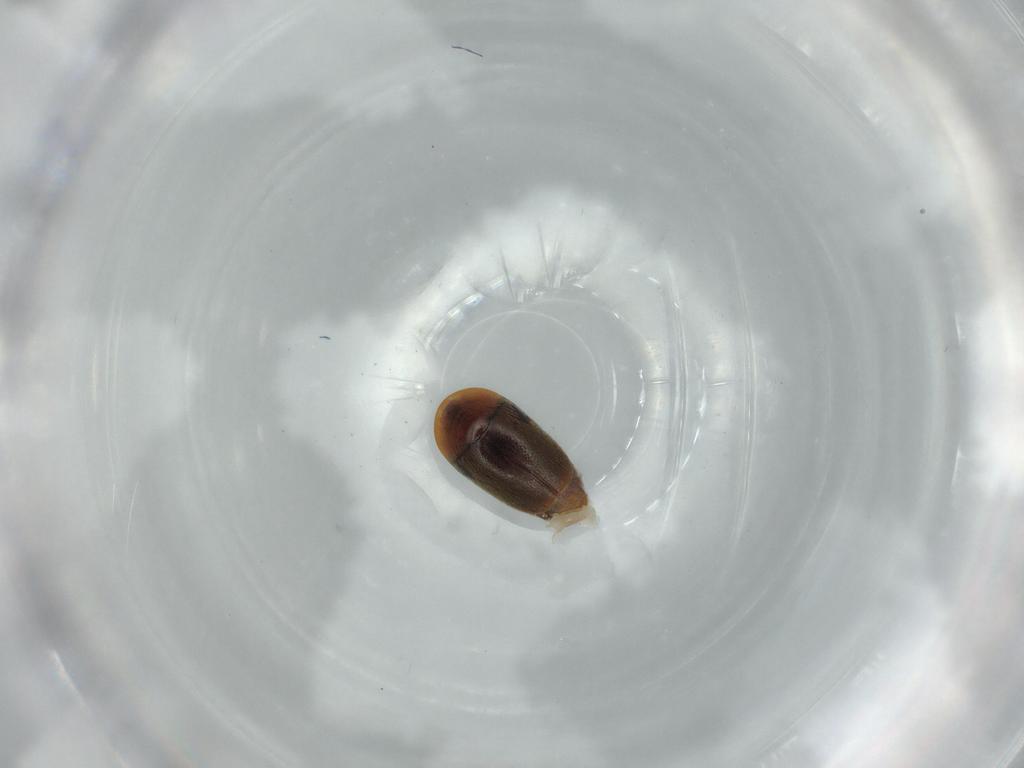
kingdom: Animalia
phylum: Arthropoda
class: Insecta
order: Coleoptera
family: Corylophidae
